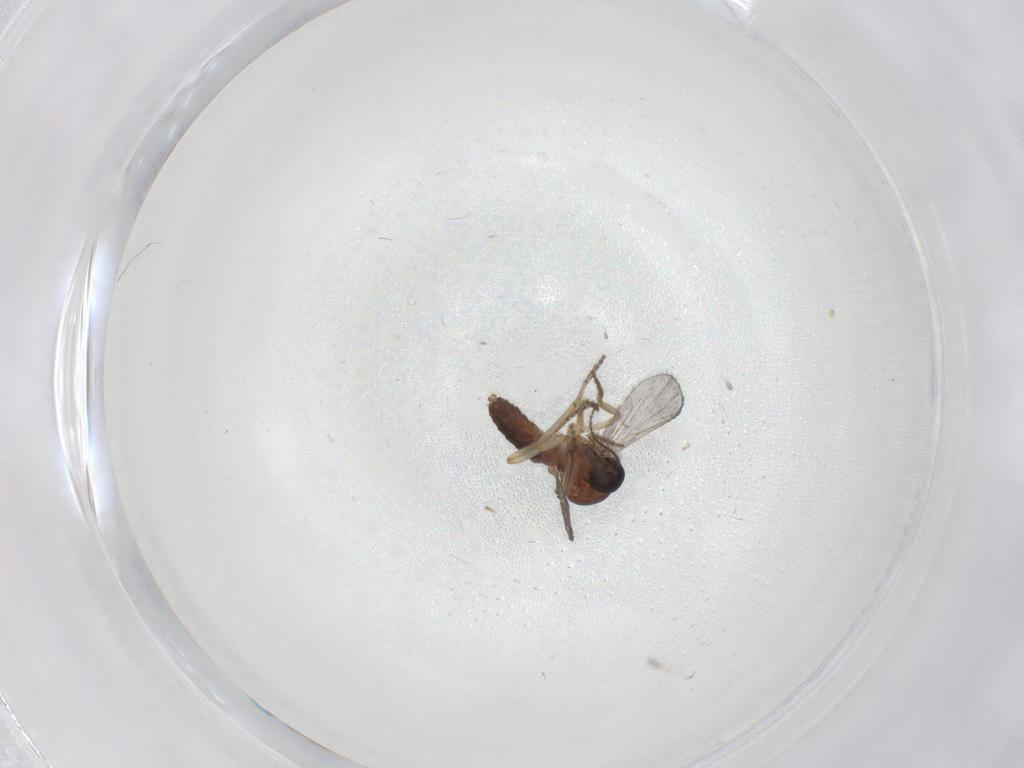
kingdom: Animalia
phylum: Arthropoda
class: Insecta
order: Diptera
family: Ceratopogonidae
